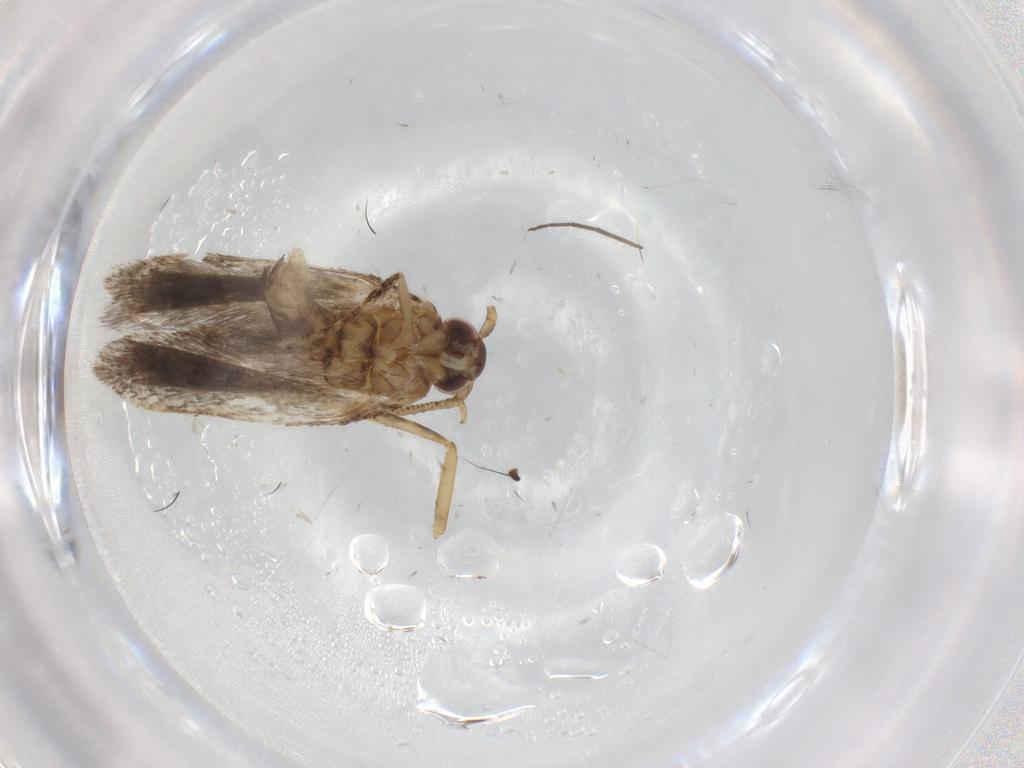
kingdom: Animalia
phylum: Arthropoda
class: Insecta
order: Lepidoptera
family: Autostichidae
